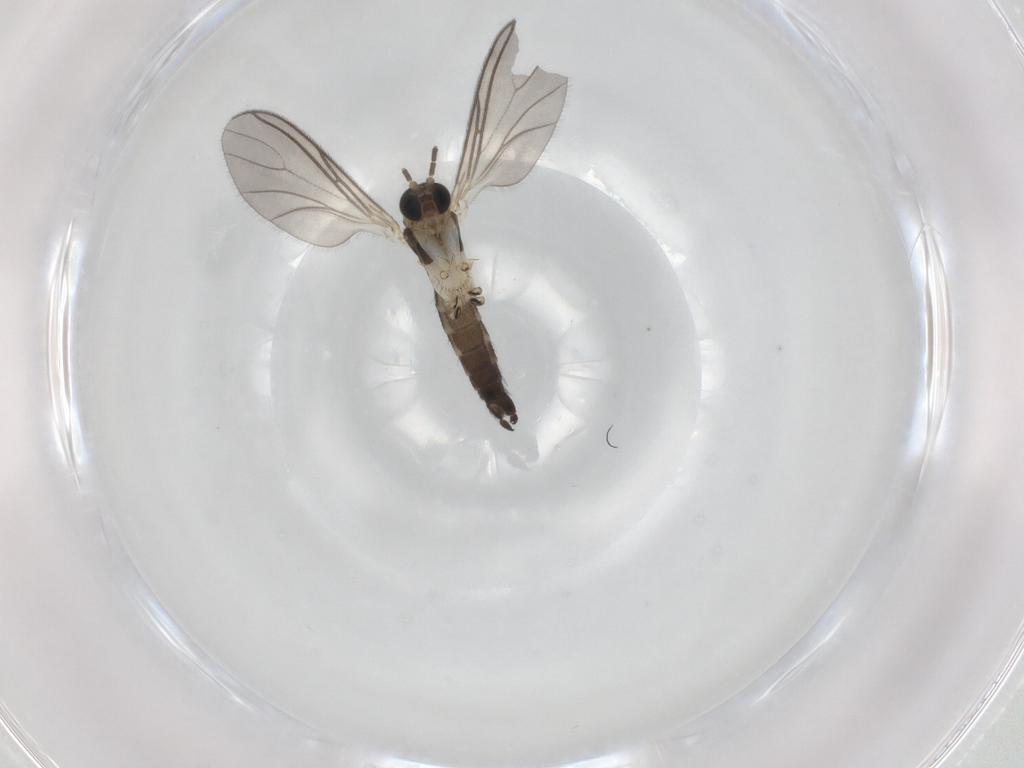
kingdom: Animalia
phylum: Arthropoda
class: Insecta
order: Diptera
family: Sciaridae
